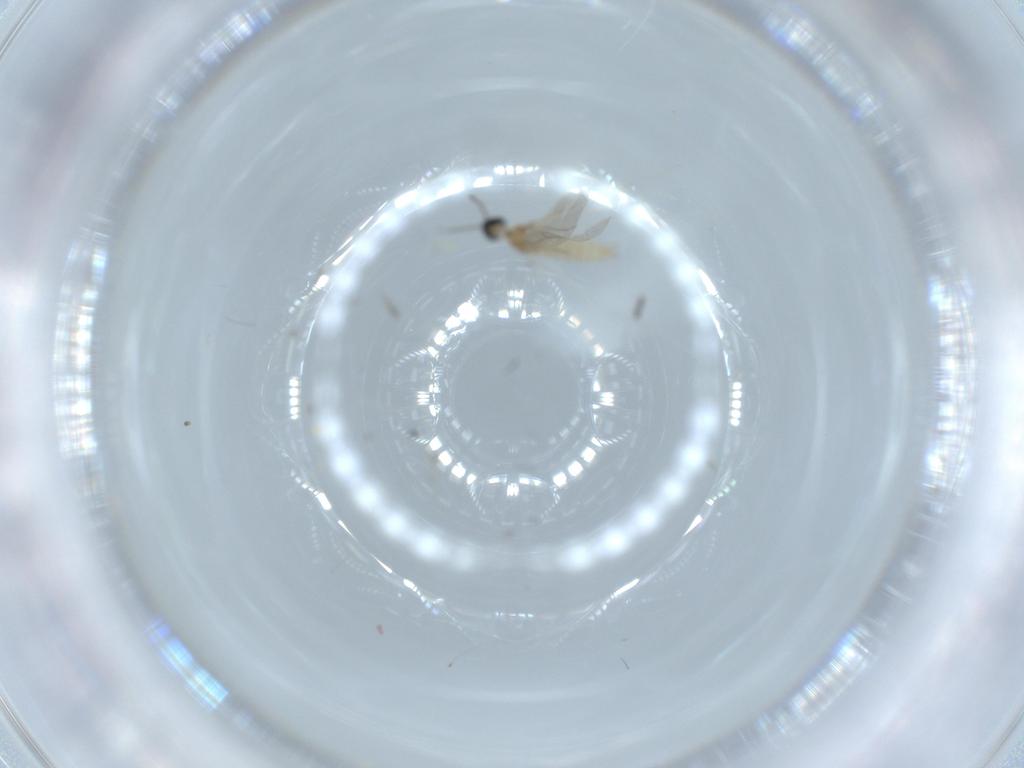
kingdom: Animalia
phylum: Arthropoda
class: Insecta
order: Diptera
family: Cecidomyiidae
